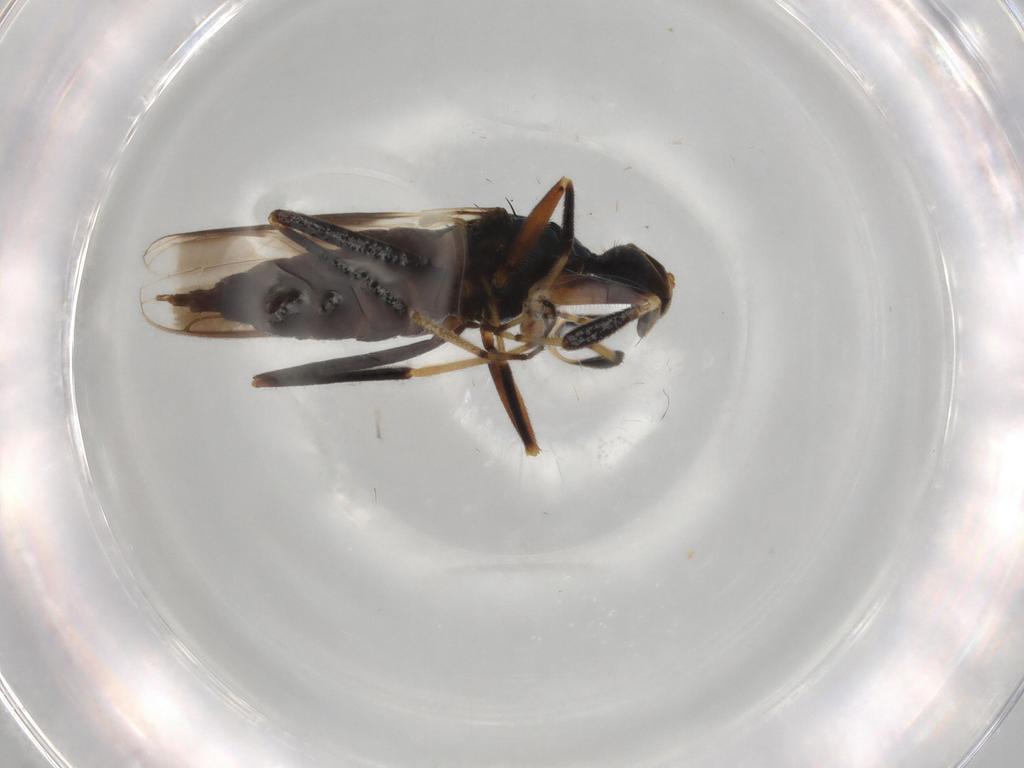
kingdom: Animalia
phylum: Arthropoda
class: Insecta
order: Diptera
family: Hybotidae
